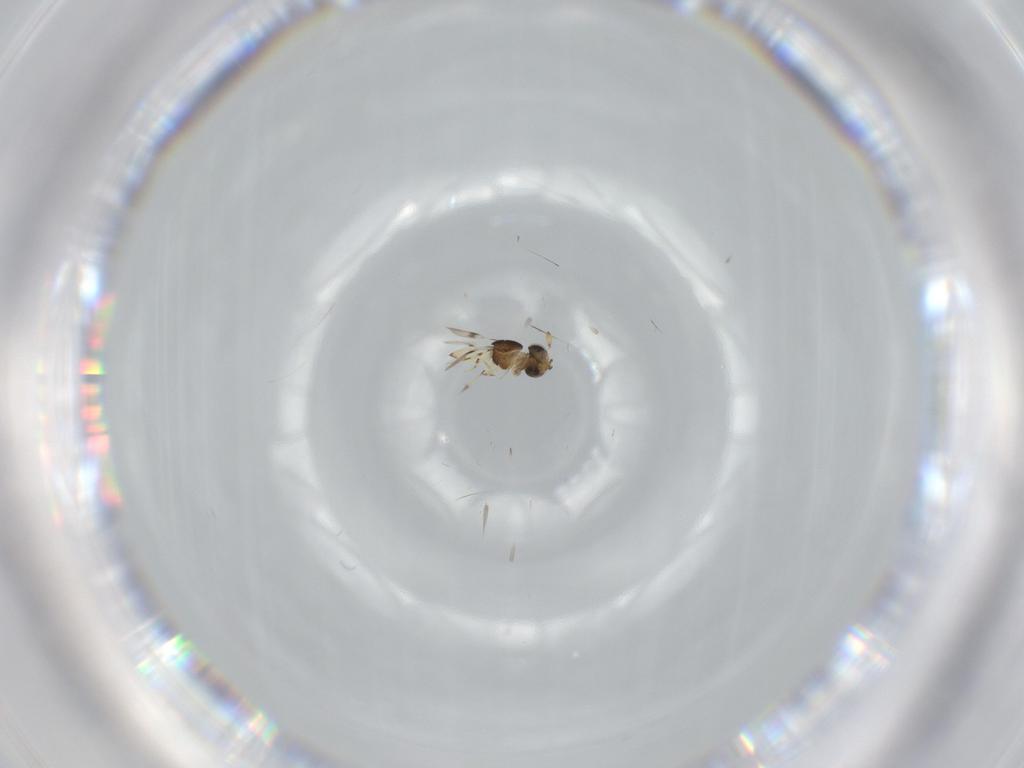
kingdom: Animalia
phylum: Arthropoda
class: Insecta
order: Hymenoptera
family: Scelionidae
